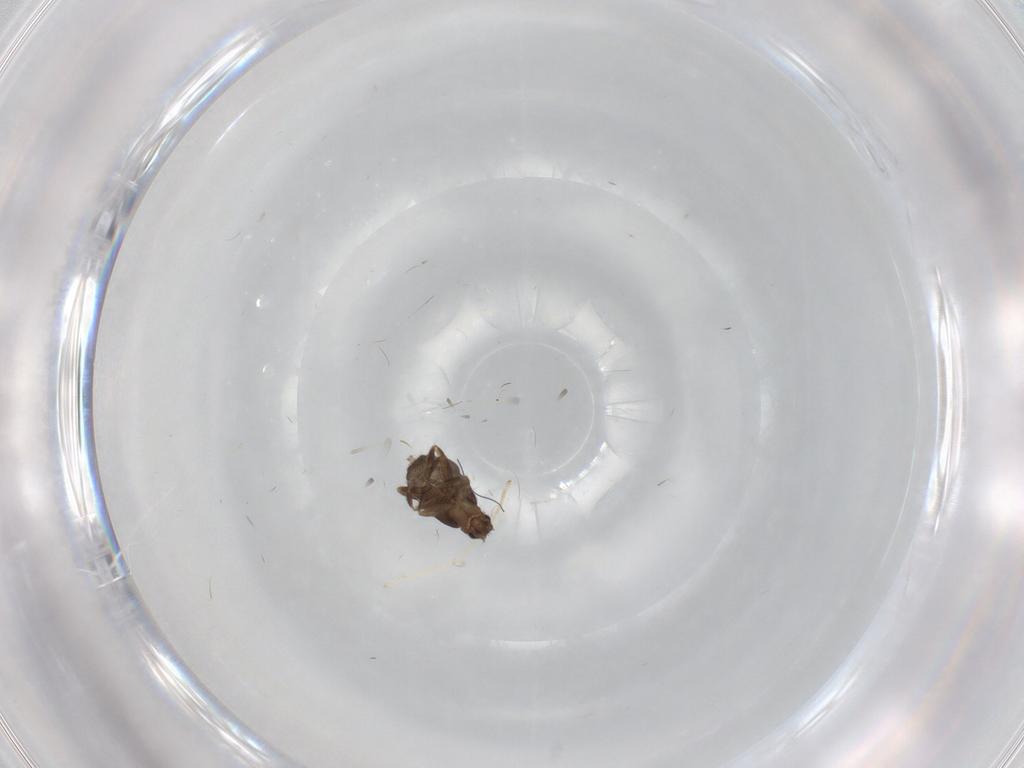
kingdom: Animalia
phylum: Arthropoda
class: Insecta
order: Diptera
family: Phoridae
